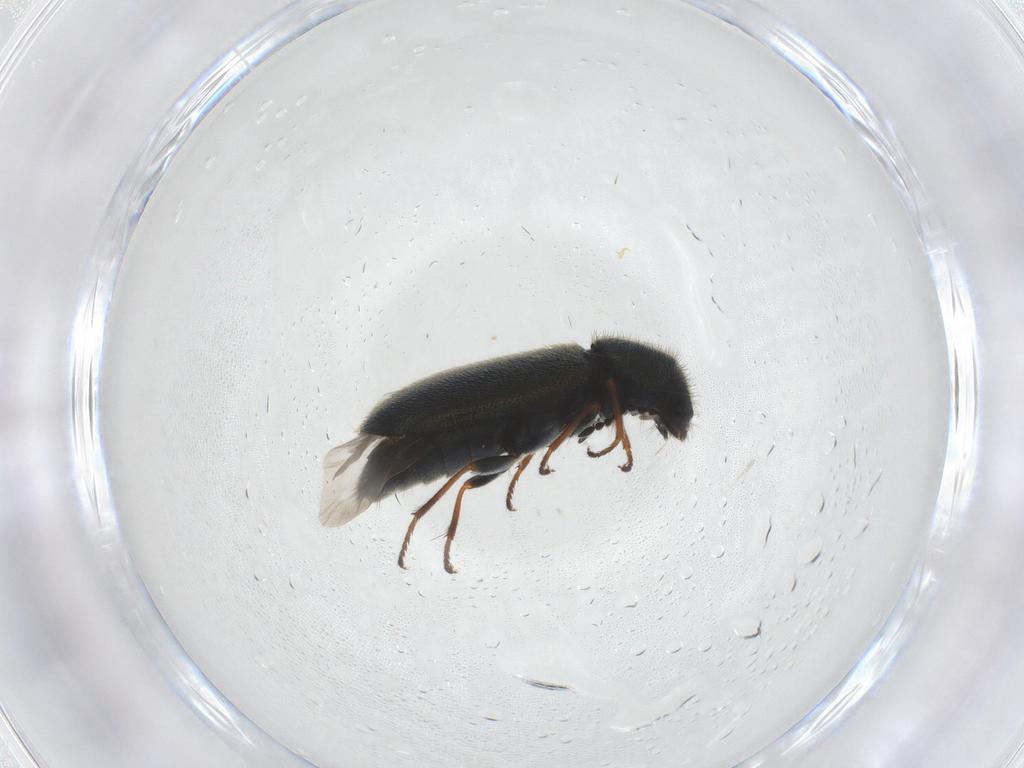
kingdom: Animalia
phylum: Arthropoda
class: Insecta
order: Coleoptera
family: Melyridae
